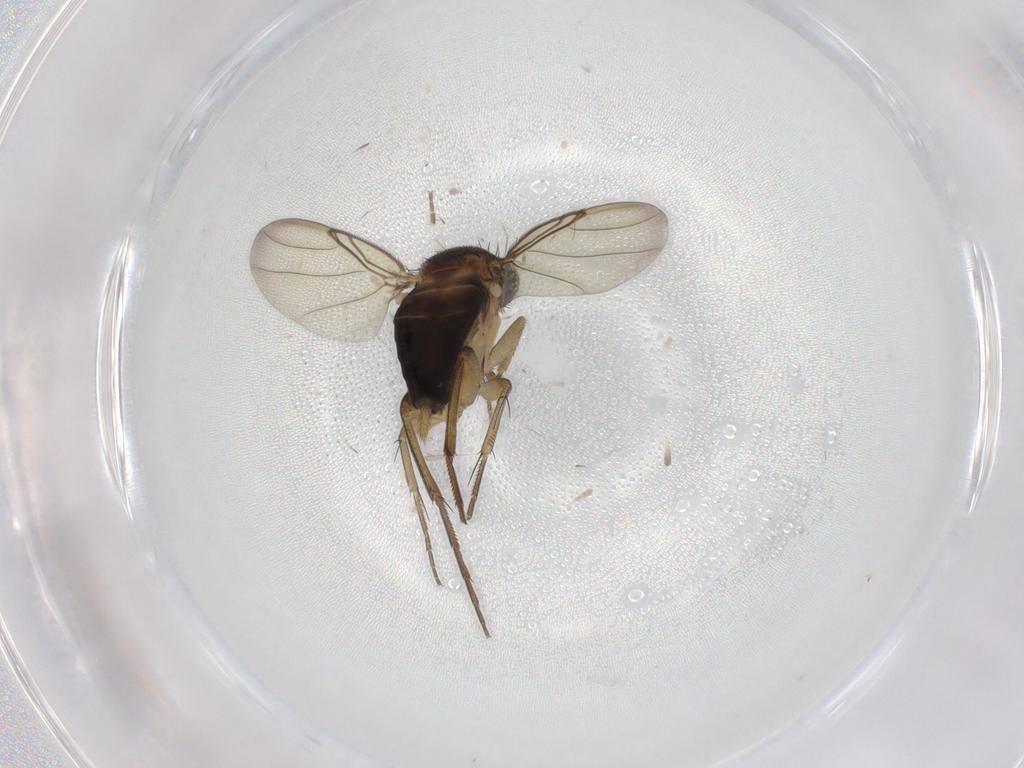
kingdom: Animalia
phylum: Arthropoda
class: Insecta
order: Diptera
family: Phoridae
